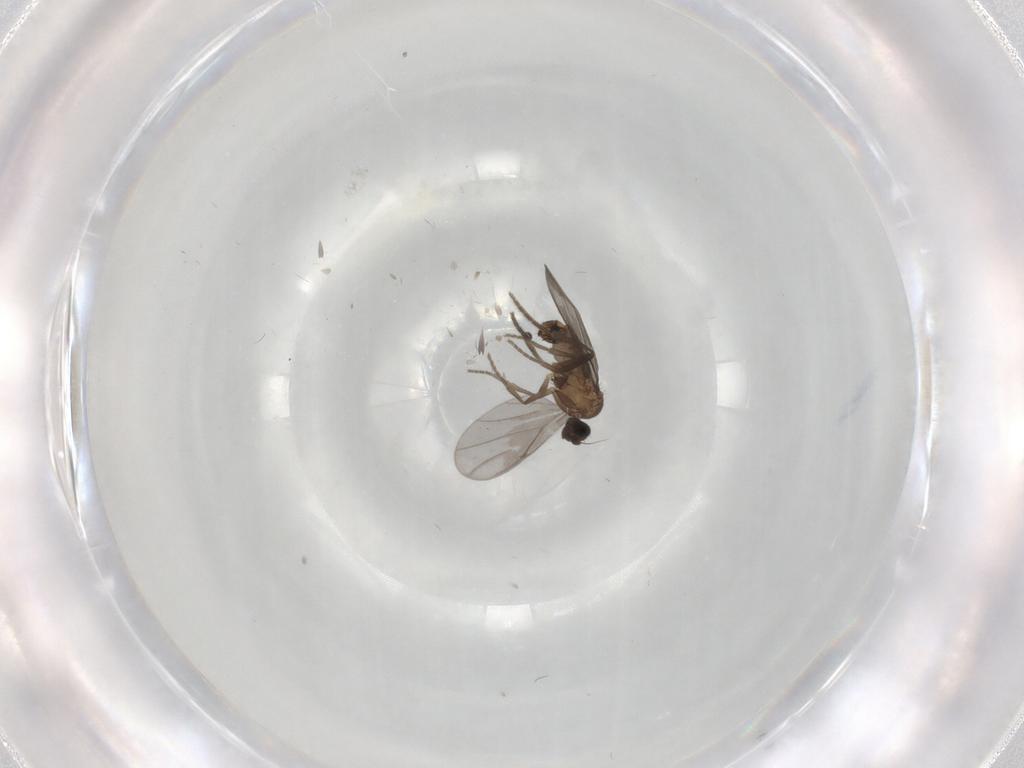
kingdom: Animalia
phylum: Arthropoda
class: Insecta
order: Diptera
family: Phoridae
